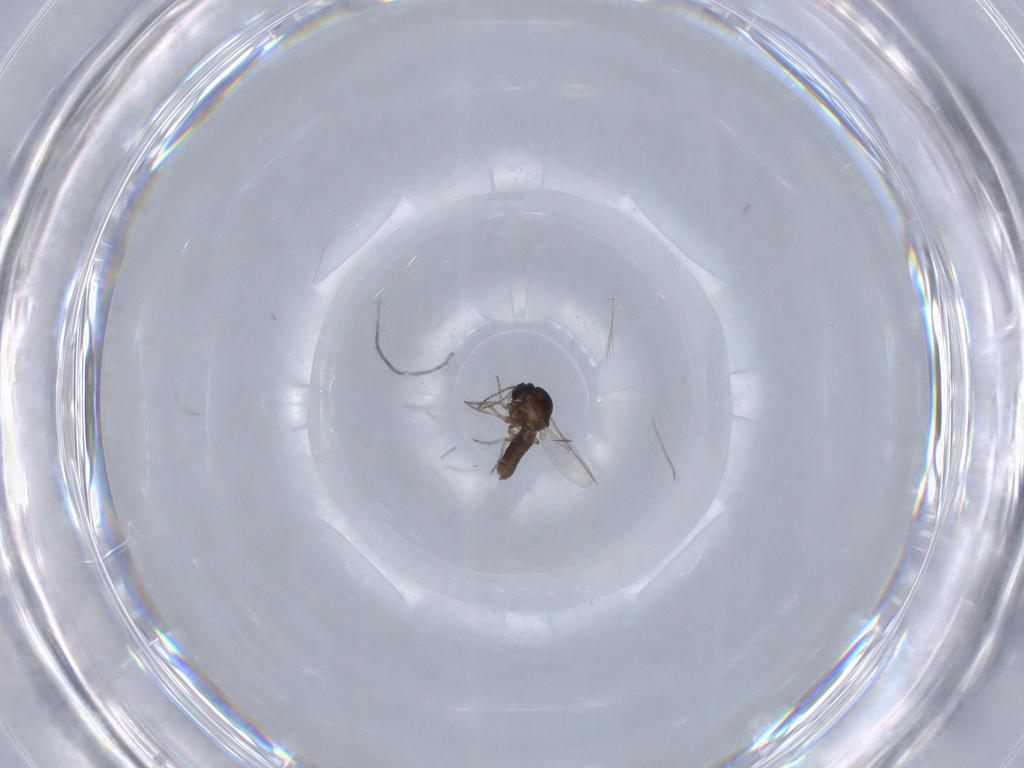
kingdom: Animalia
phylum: Arthropoda
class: Insecta
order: Diptera
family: Ceratopogonidae
